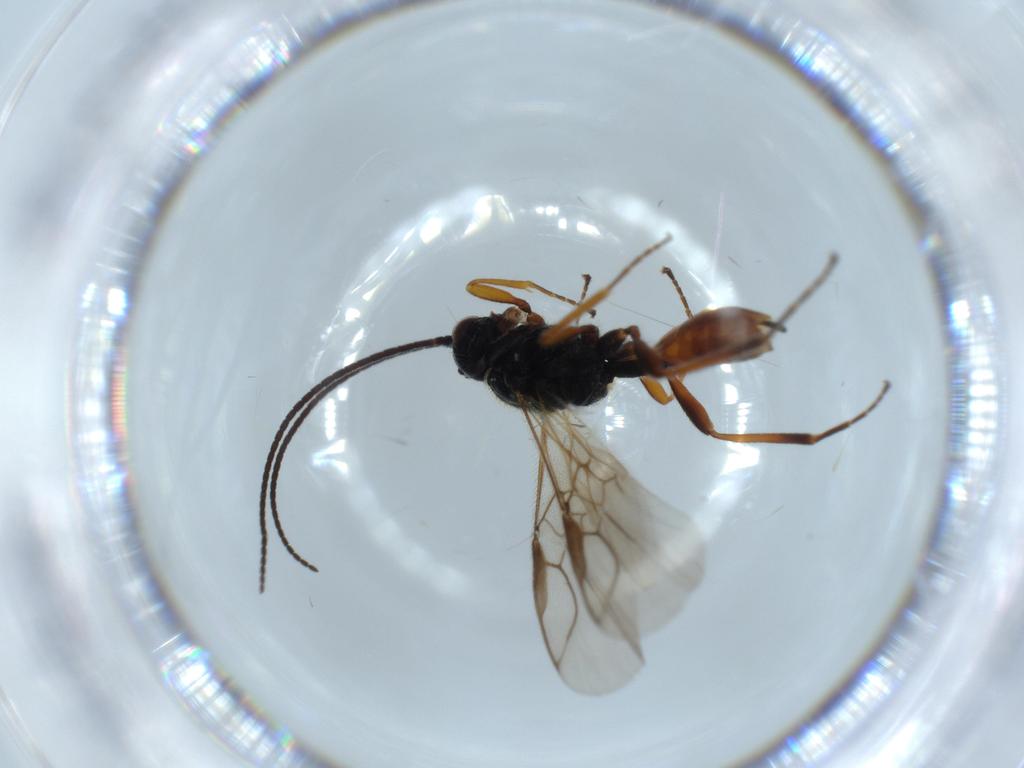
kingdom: Animalia
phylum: Arthropoda
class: Insecta
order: Hymenoptera
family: Braconidae
